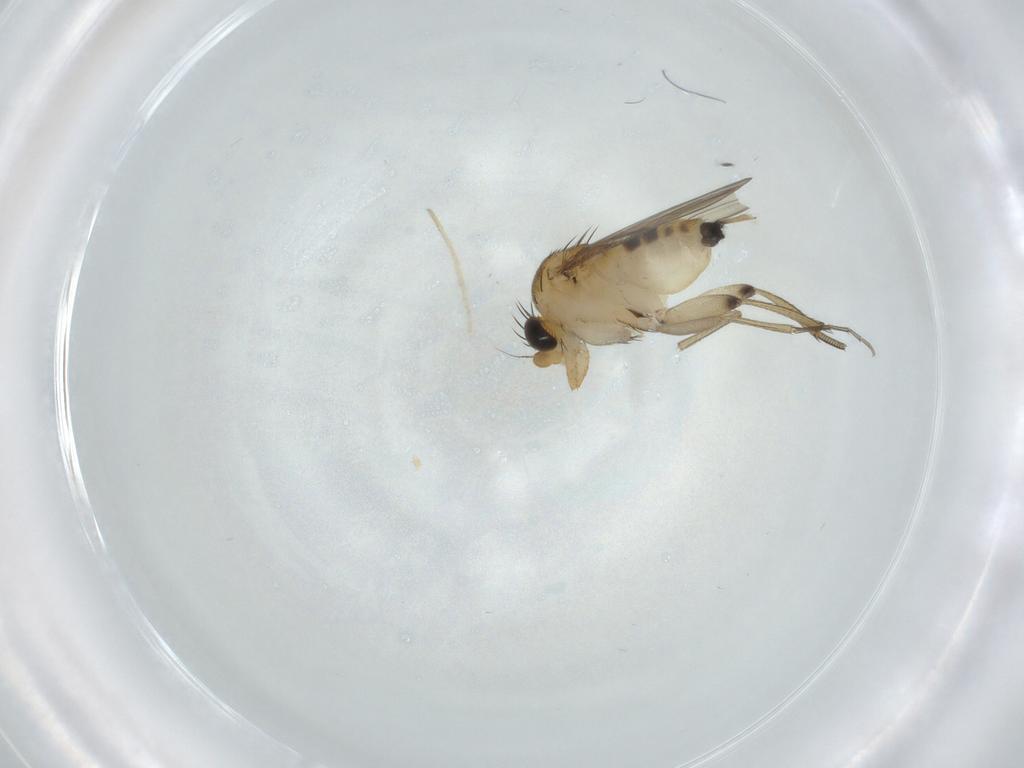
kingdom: Animalia
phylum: Arthropoda
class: Insecta
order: Diptera
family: Phoridae
